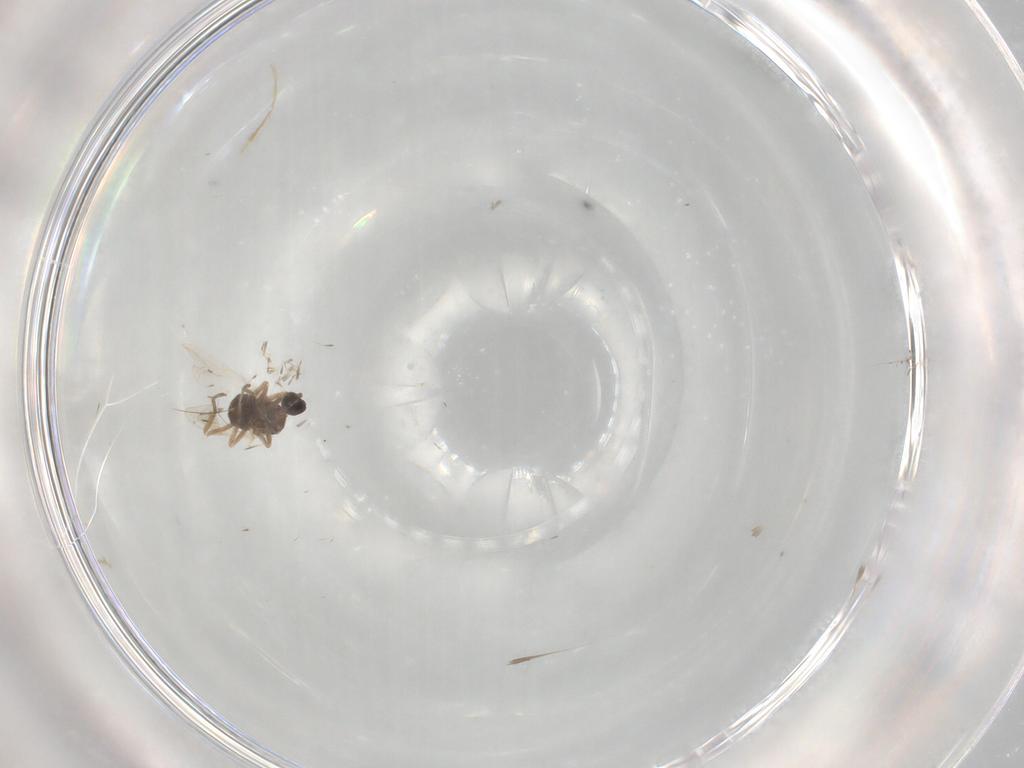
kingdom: Animalia
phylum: Arthropoda
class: Insecta
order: Diptera
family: Cecidomyiidae
